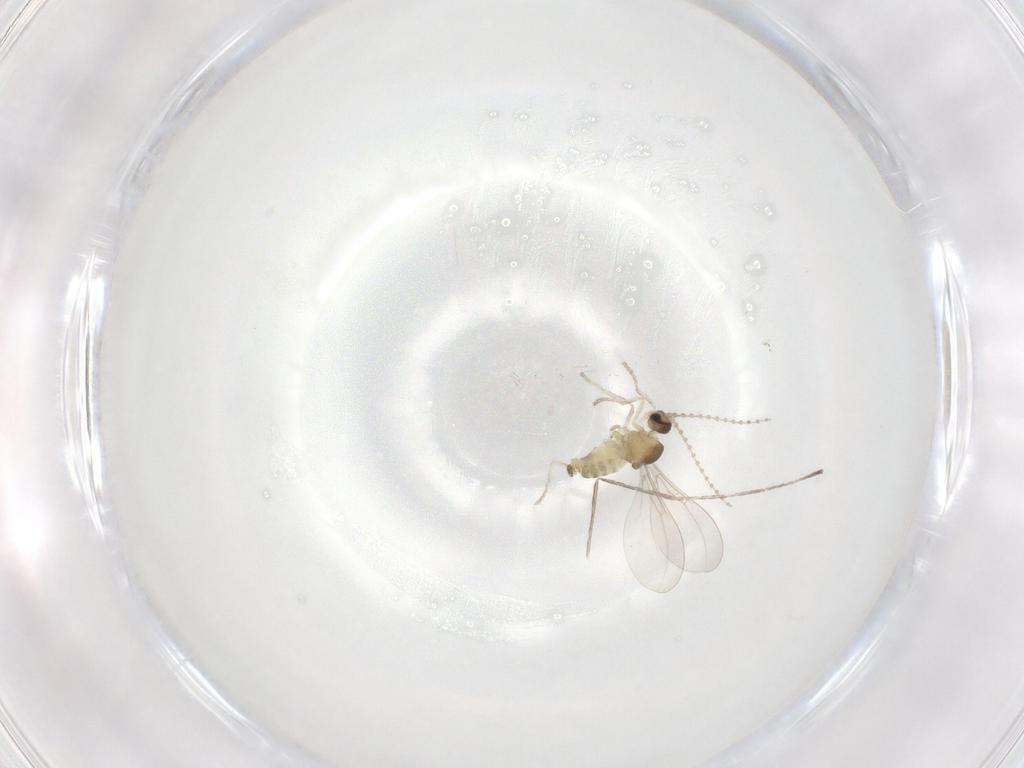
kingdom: Animalia
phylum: Arthropoda
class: Insecta
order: Diptera
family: Cecidomyiidae
